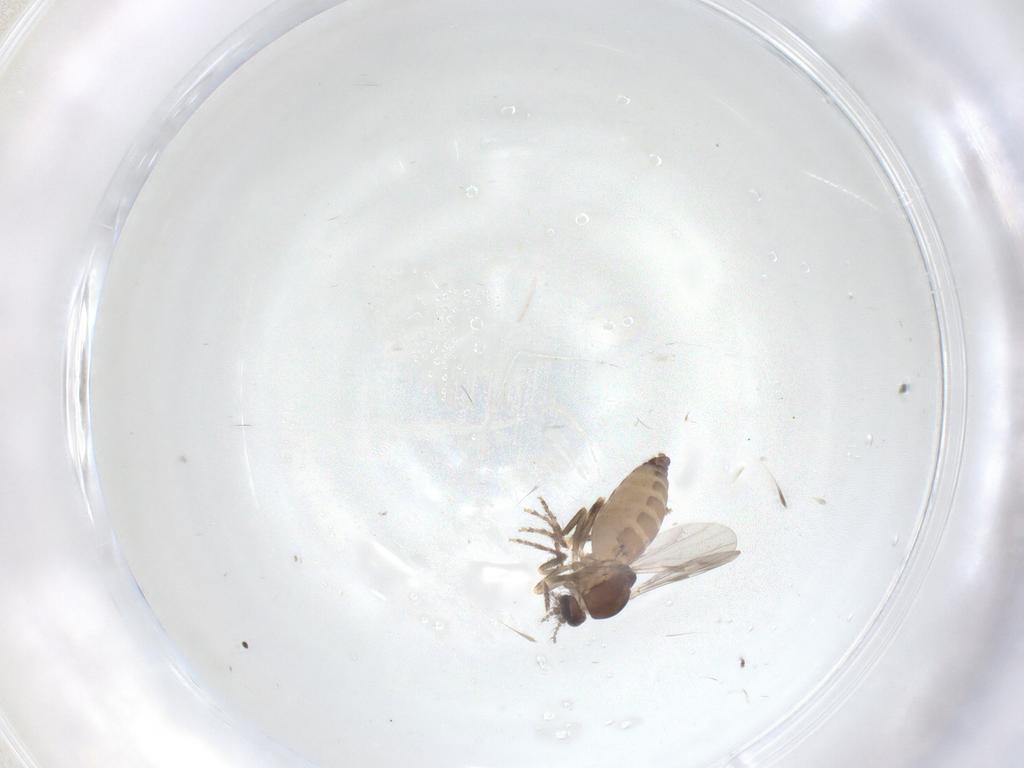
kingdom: Animalia
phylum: Arthropoda
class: Insecta
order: Diptera
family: Ceratopogonidae
